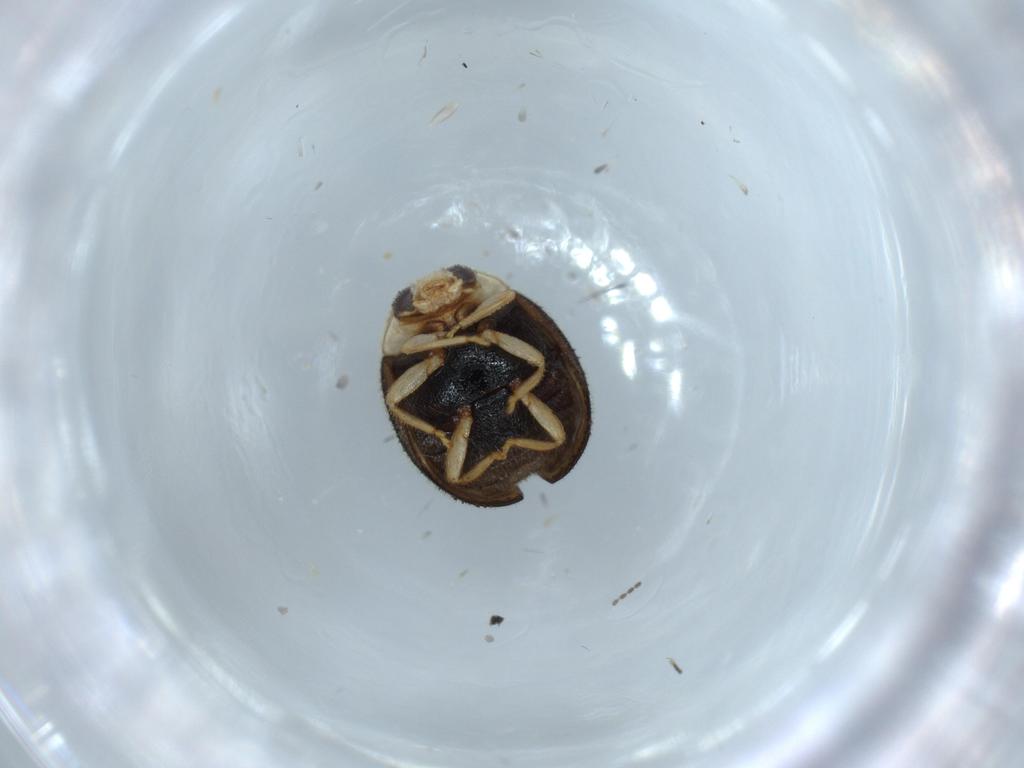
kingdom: Animalia
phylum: Arthropoda
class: Insecta
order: Coleoptera
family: Coccinellidae
